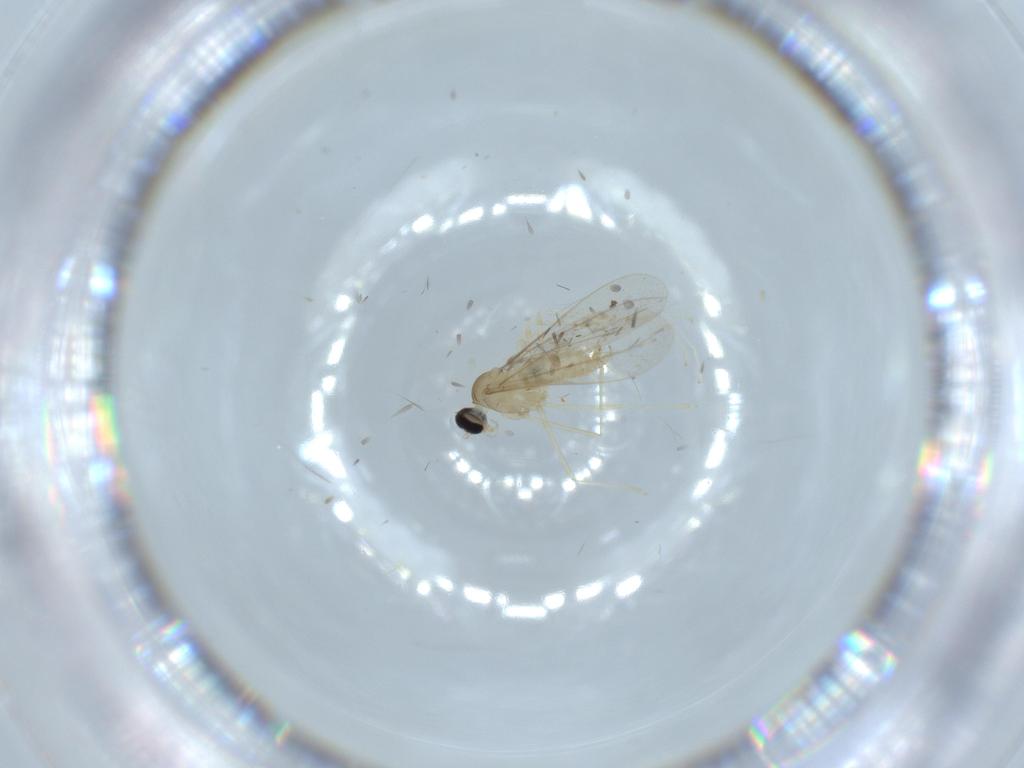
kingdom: Animalia
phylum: Arthropoda
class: Insecta
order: Diptera
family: Cecidomyiidae
